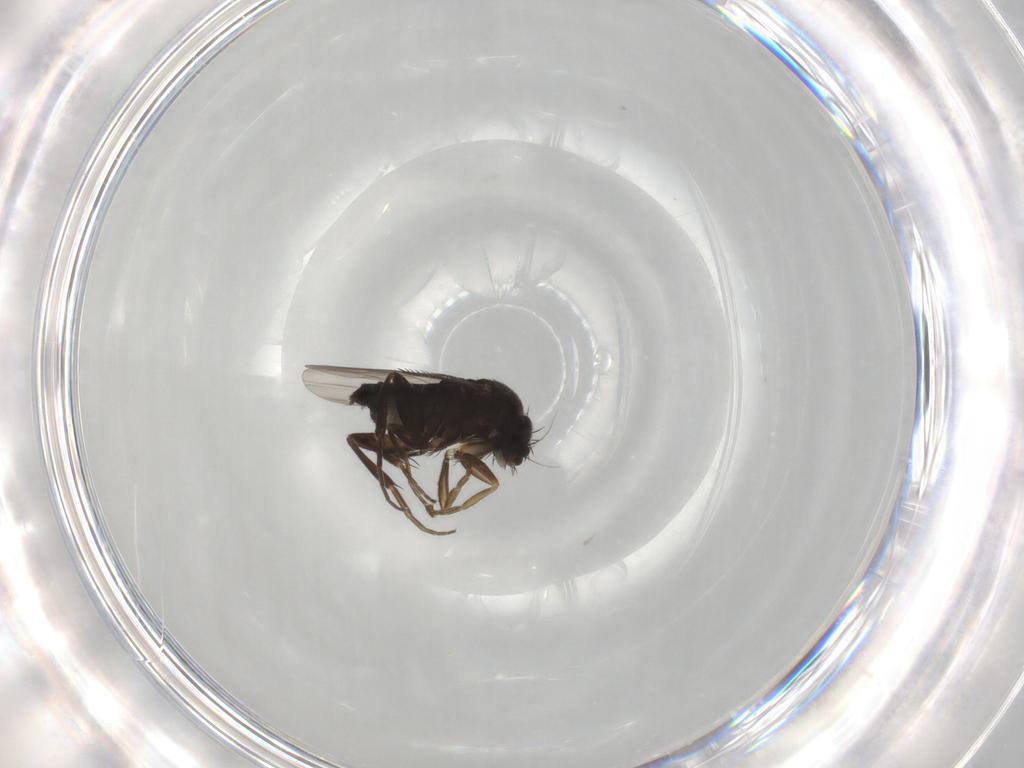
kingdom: Animalia
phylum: Arthropoda
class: Insecta
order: Diptera
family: Phoridae
